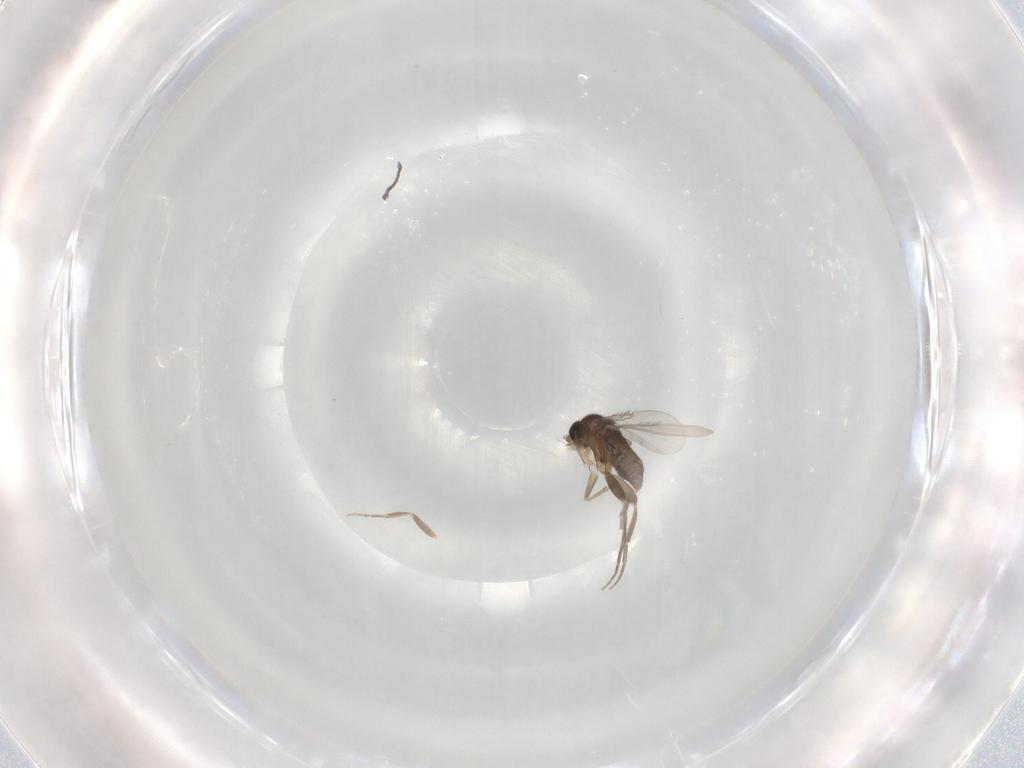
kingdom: Animalia
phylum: Arthropoda
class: Insecta
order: Diptera
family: Phoridae
